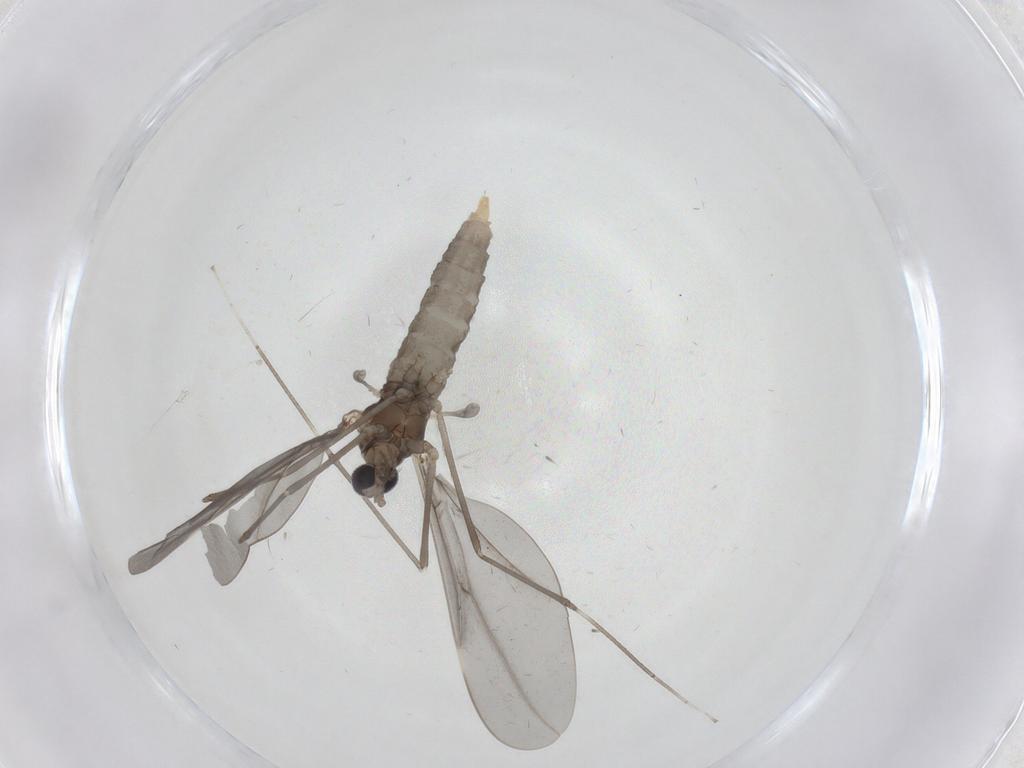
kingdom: Animalia
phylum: Arthropoda
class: Insecta
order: Diptera
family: Cecidomyiidae
